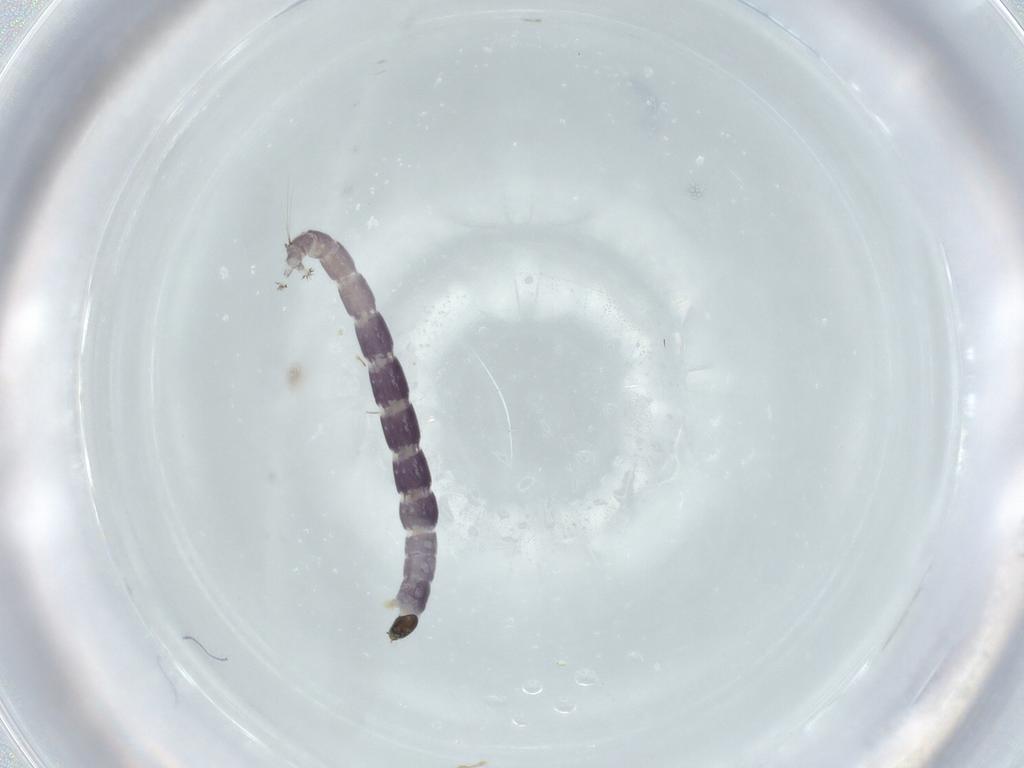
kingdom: Animalia
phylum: Arthropoda
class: Insecta
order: Diptera
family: Chironomidae
